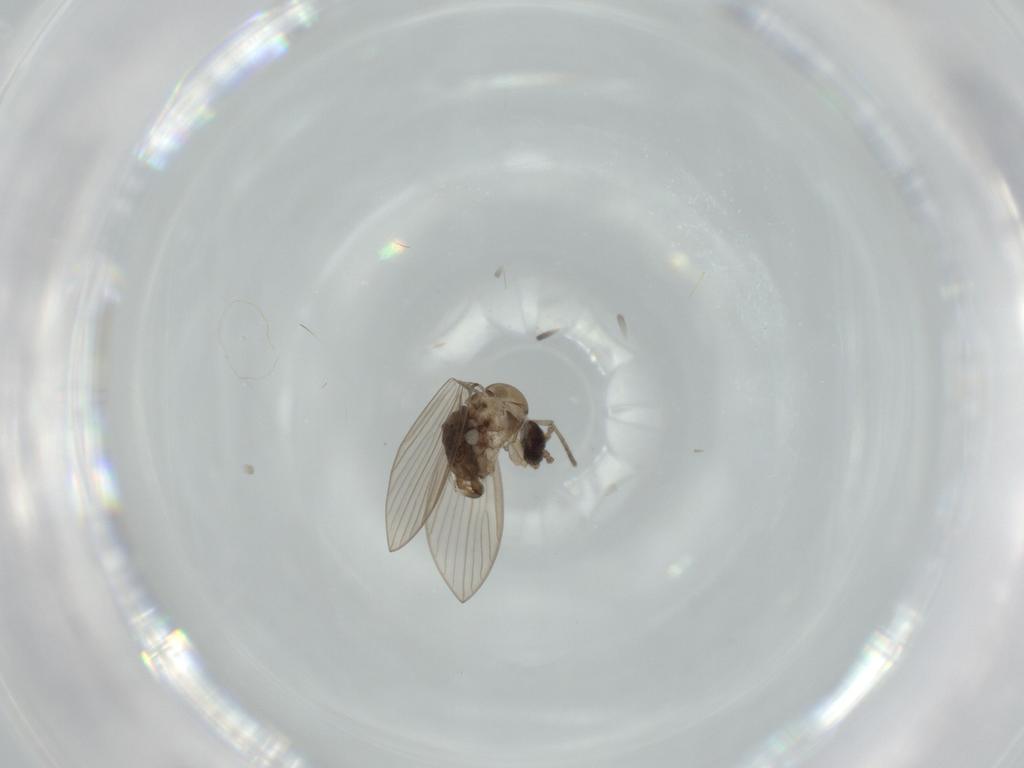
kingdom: Animalia
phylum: Arthropoda
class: Insecta
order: Diptera
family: Psychodidae
